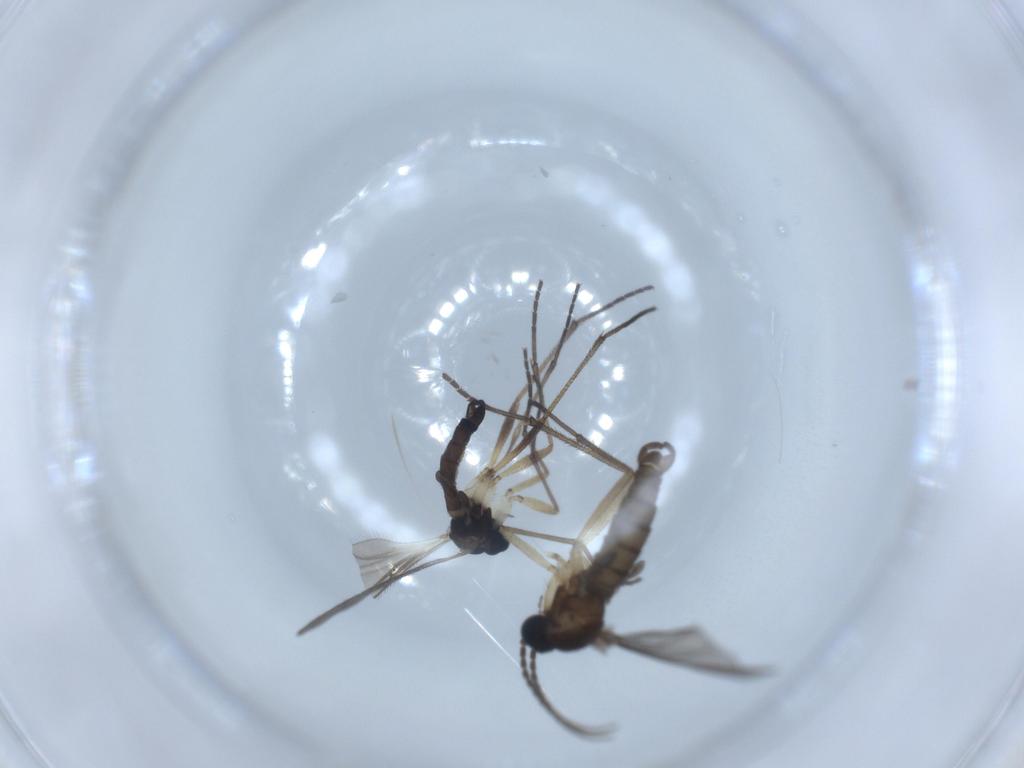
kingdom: Animalia
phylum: Arthropoda
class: Insecta
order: Diptera
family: Sciaridae
